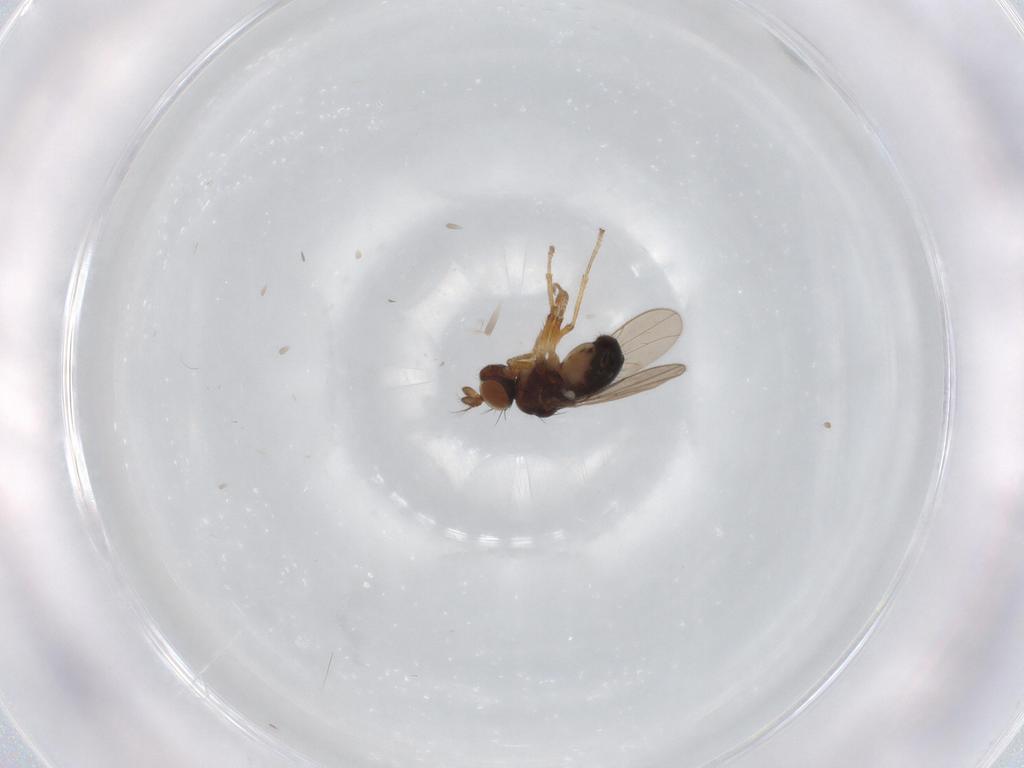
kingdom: Animalia
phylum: Arthropoda
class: Insecta
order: Diptera
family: Ephydridae
